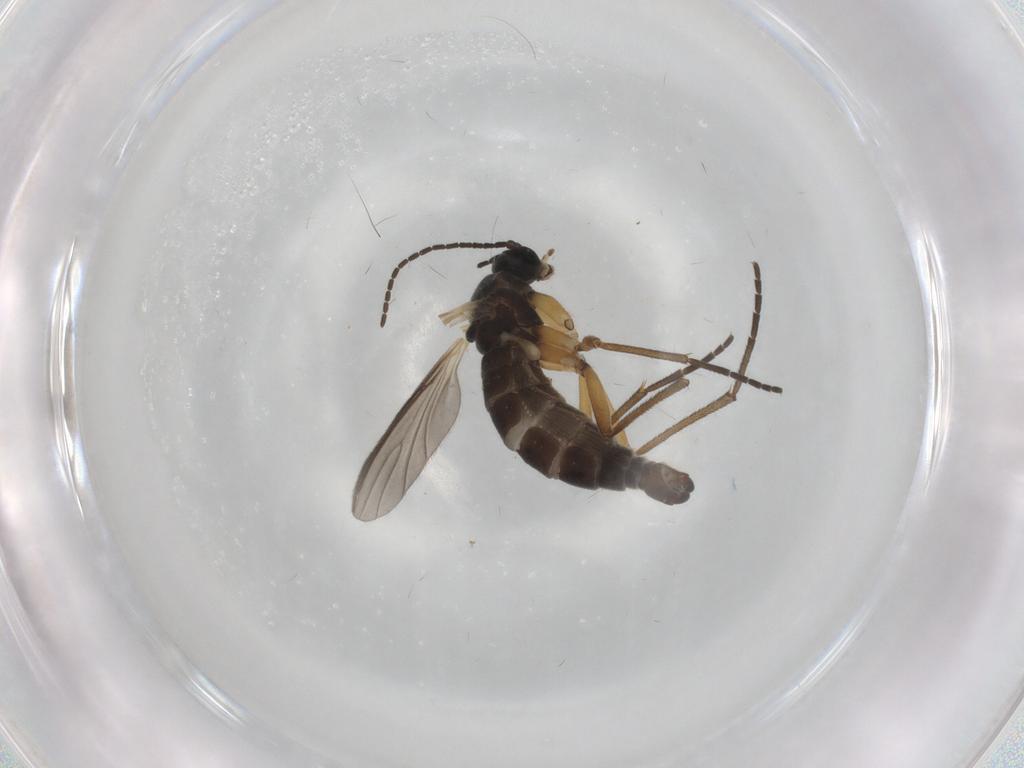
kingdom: Animalia
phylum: Arthropoda
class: Insecta
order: Diptera
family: Sciaridae
